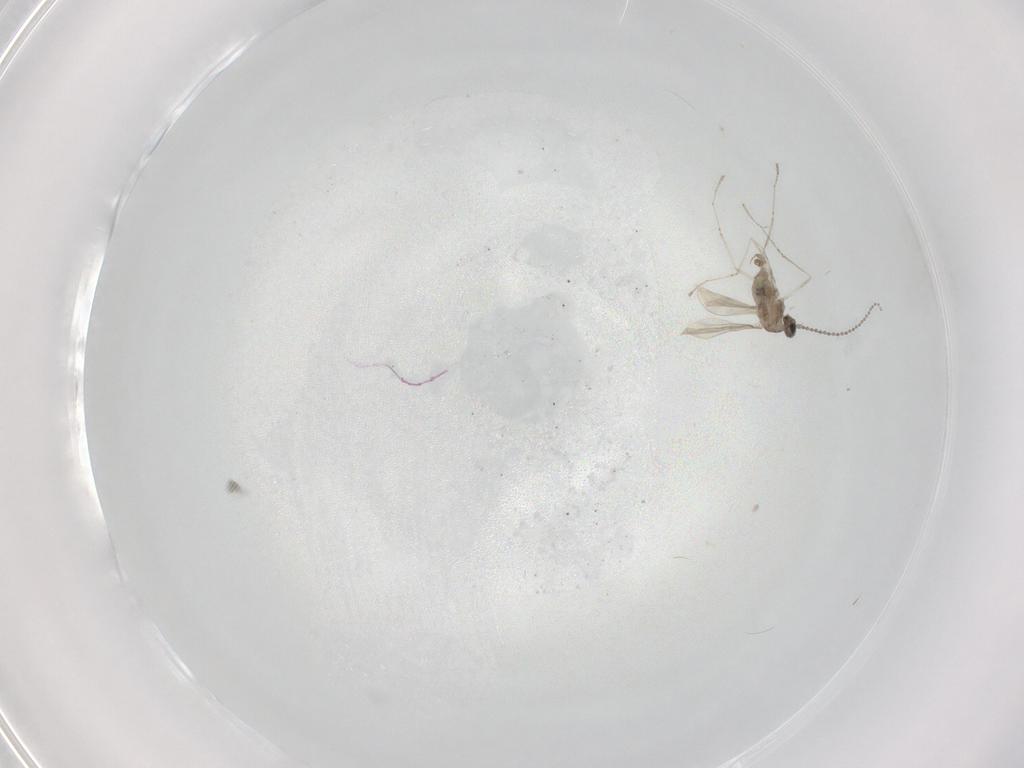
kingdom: Animalia
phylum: Arthropoda
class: Insecta
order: Diptera
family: Cecidomyiidae
